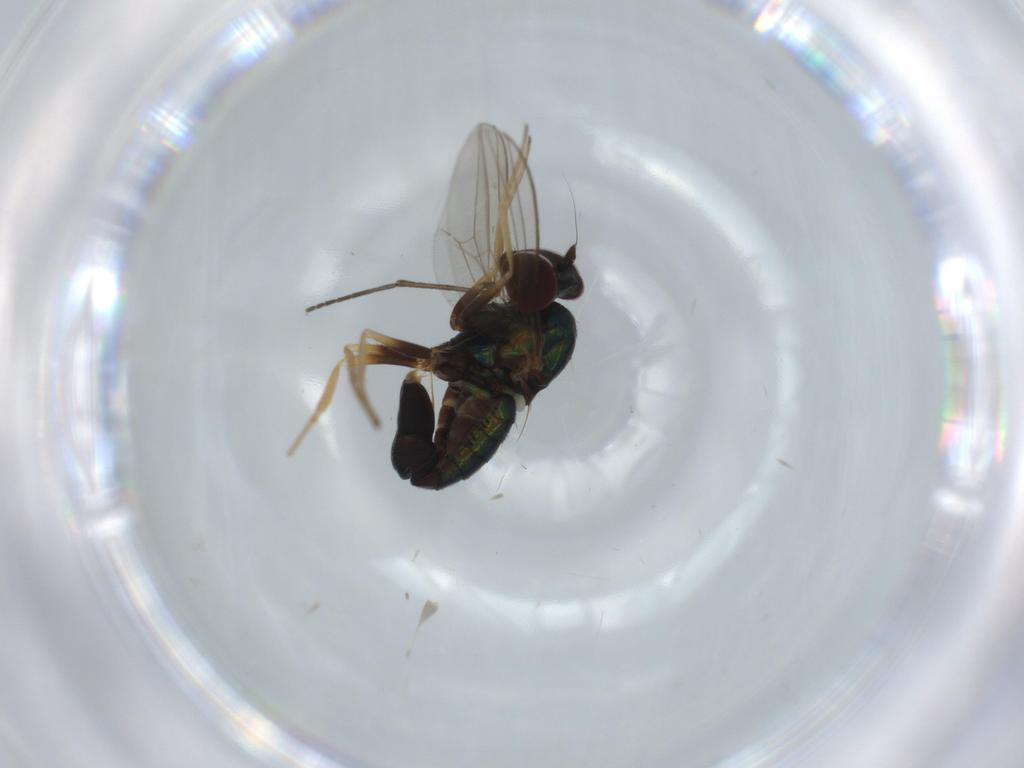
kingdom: Animalia
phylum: Arthropoda
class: Insecta
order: Diptera
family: Dolichopodidae
